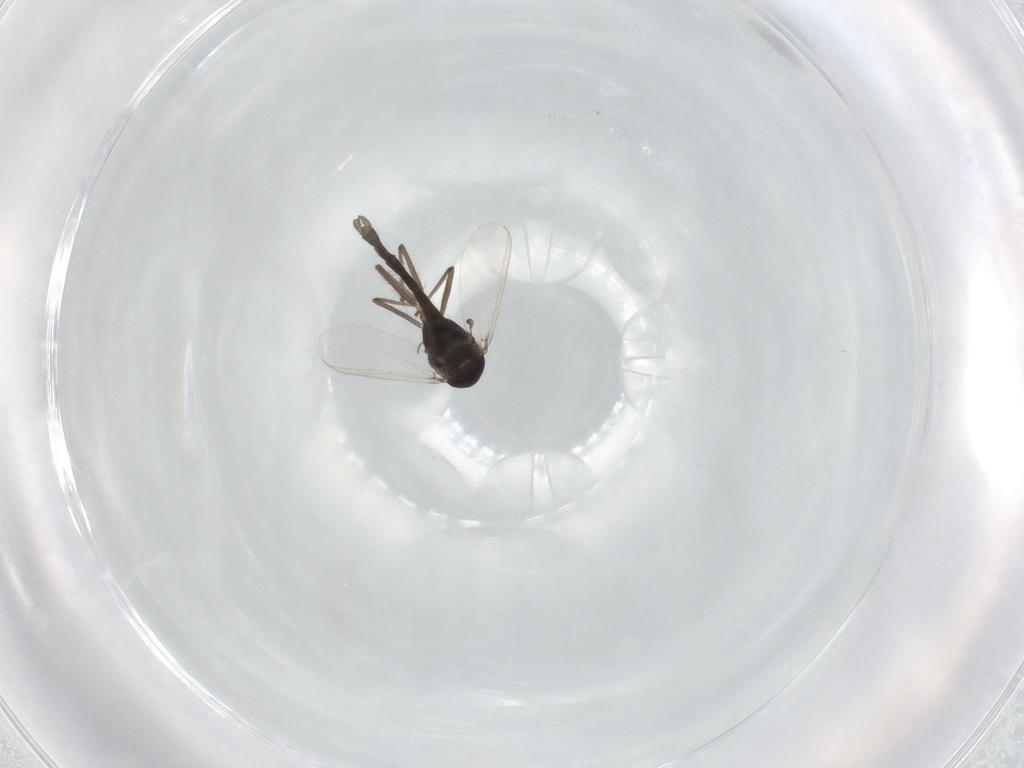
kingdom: Animalia
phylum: Arthropoda
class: Insecta
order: Diptera
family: Chironomidae
